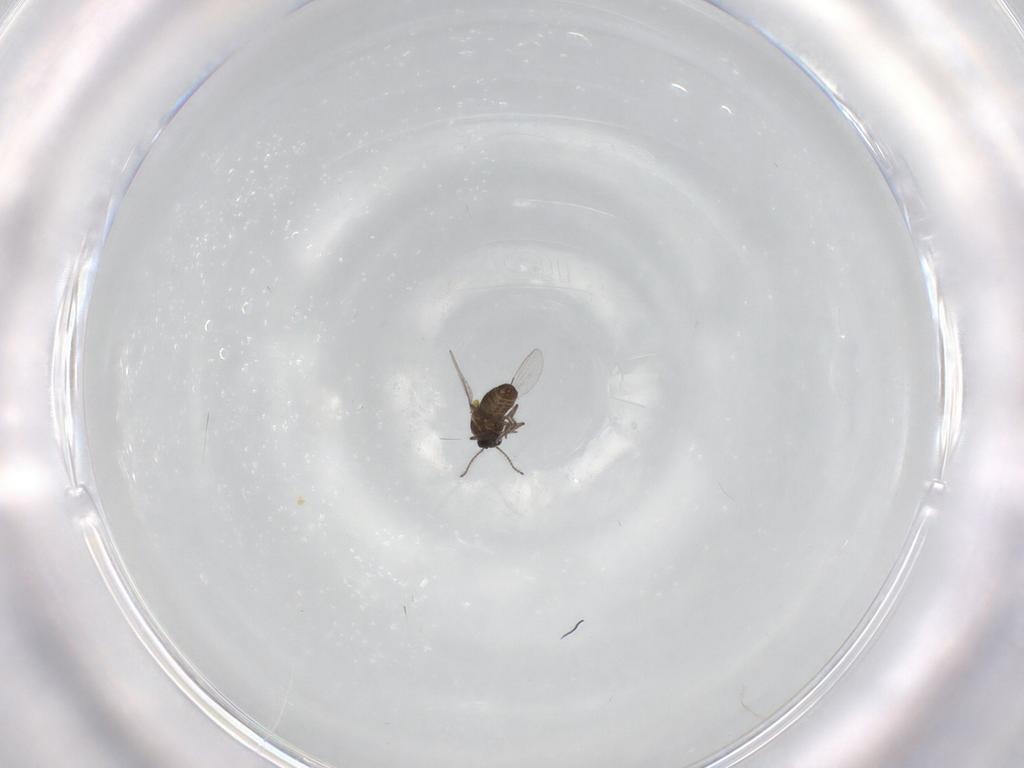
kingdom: Animalia
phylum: Arthropoda
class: Insecta
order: Diptera
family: Ceratopogonidae
